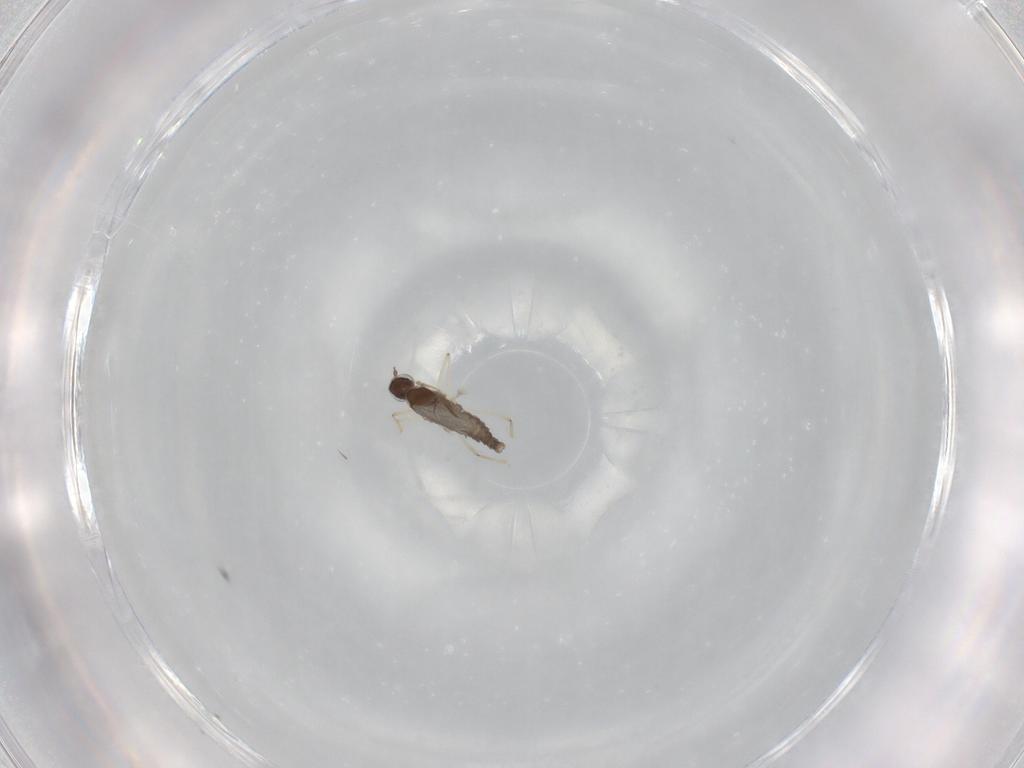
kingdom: Animalia
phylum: Arthropoda
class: Insecta
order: Diptera
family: Cecidomyiidae
